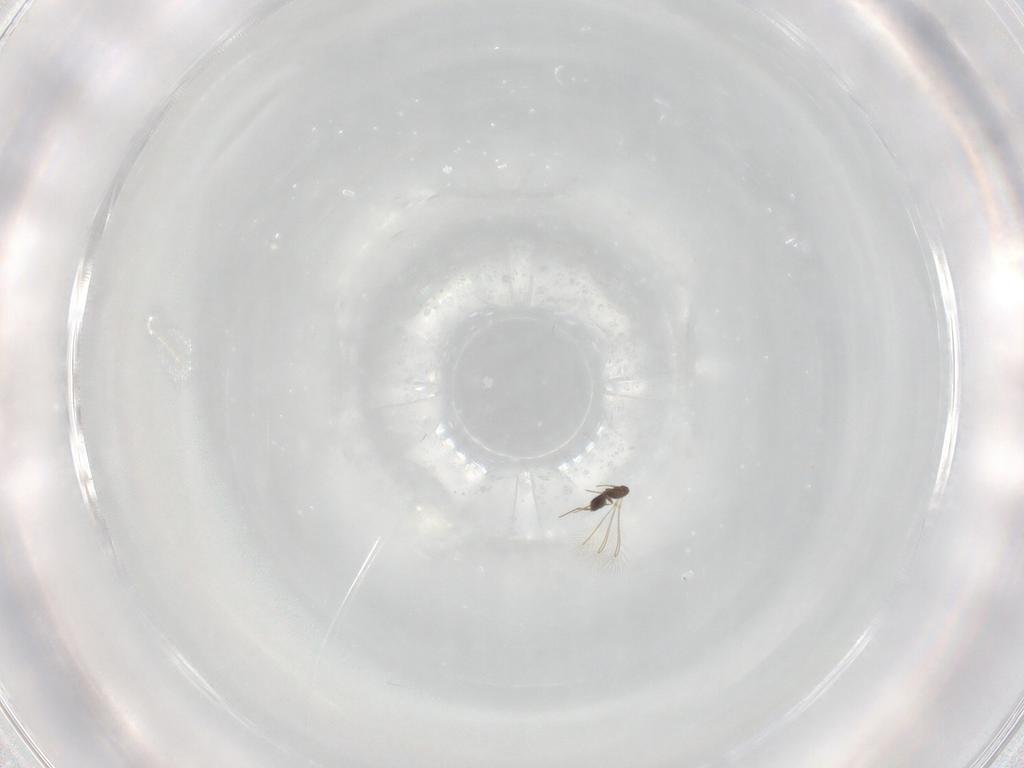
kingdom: Animalia
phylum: Arthropoda
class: Insecta
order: Hymenoptera
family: Mymaridae
